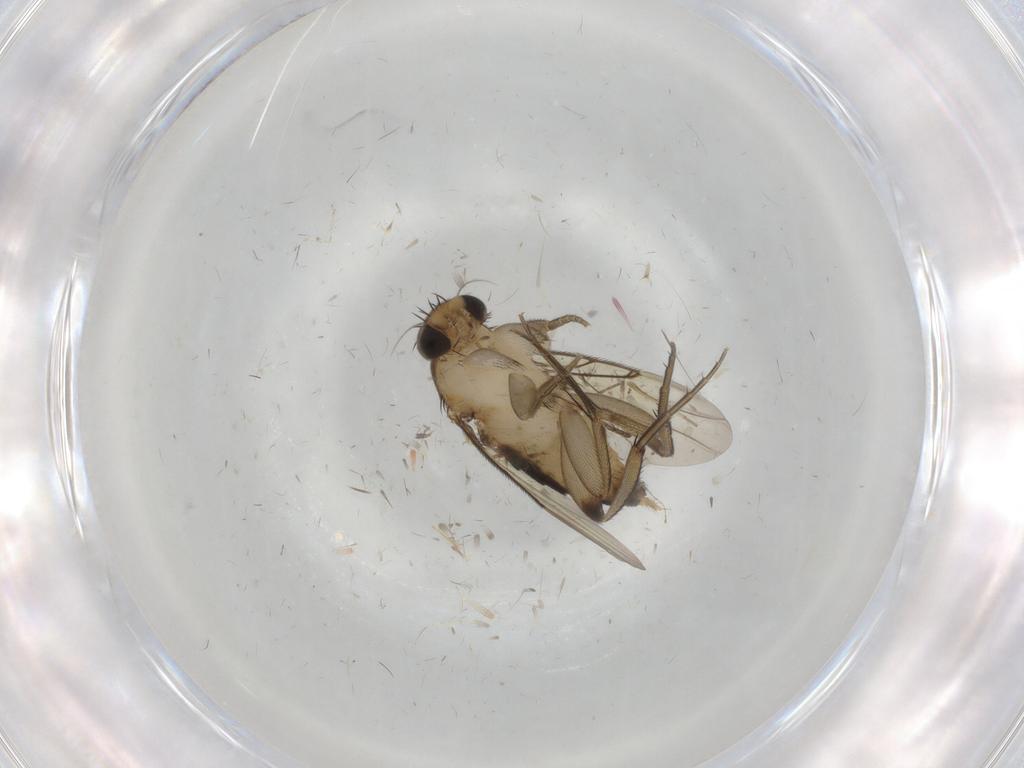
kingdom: Animalia
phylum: Arthropoda
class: Insecta
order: Diptera
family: Phoridae
